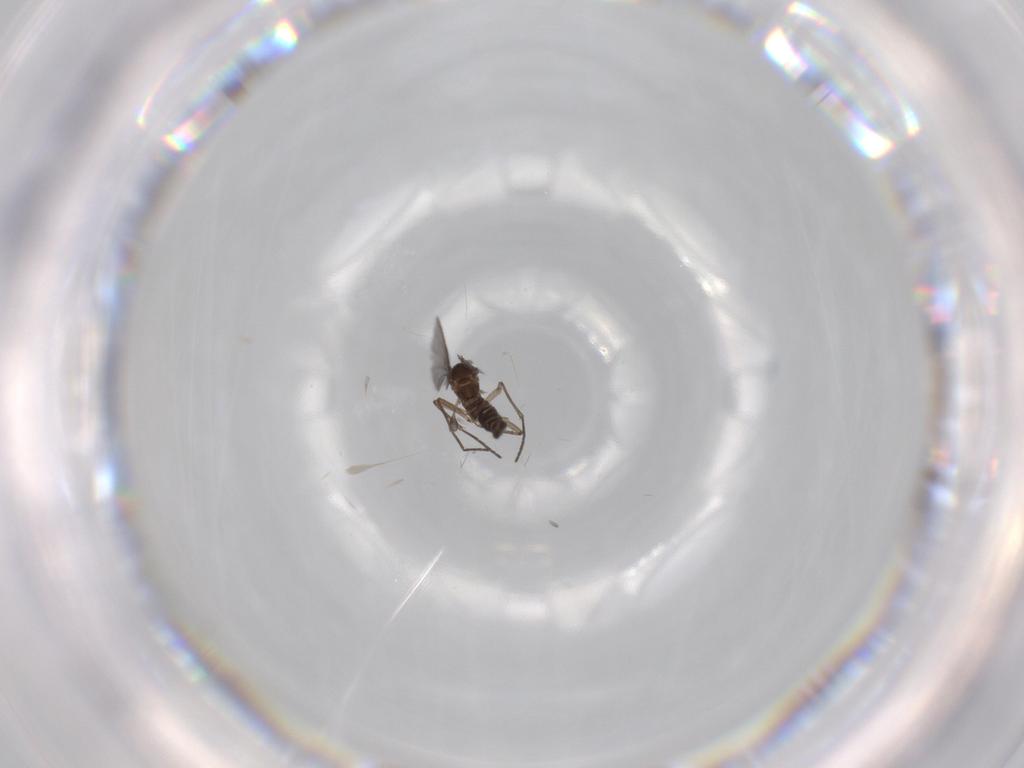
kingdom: Animalia
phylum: Arthropoda
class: Insecta
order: Diptera
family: Sciaridae
